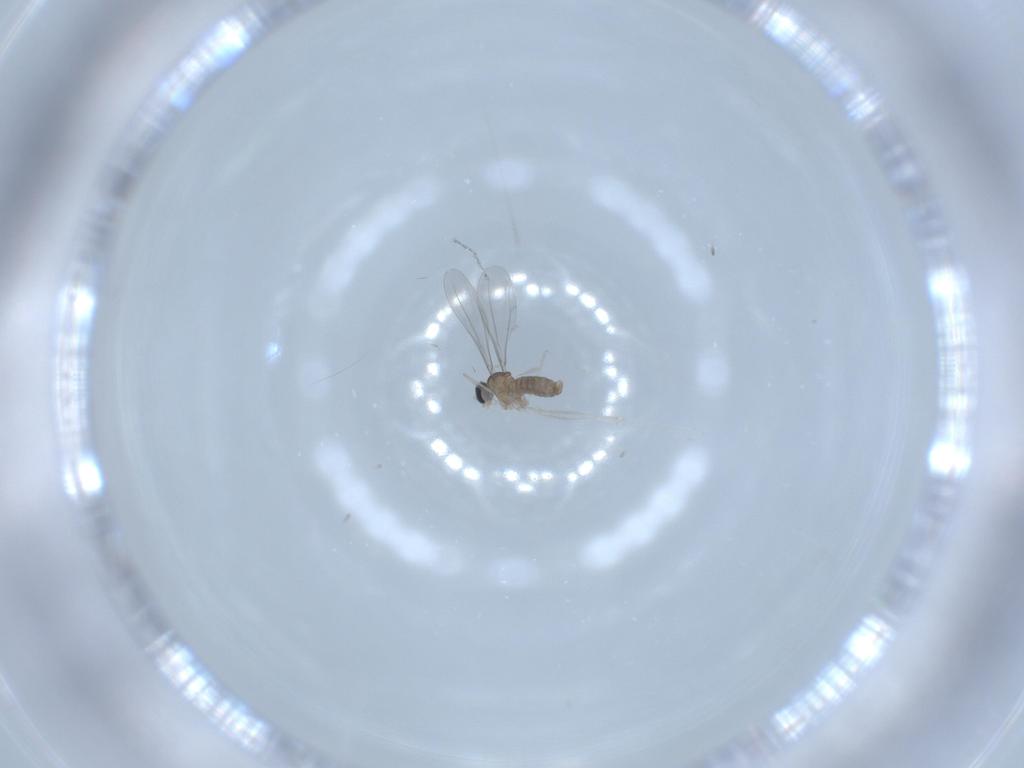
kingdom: Animalia
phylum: Arthropoda
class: Insecta
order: Diptera
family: Cecidomyiidae
